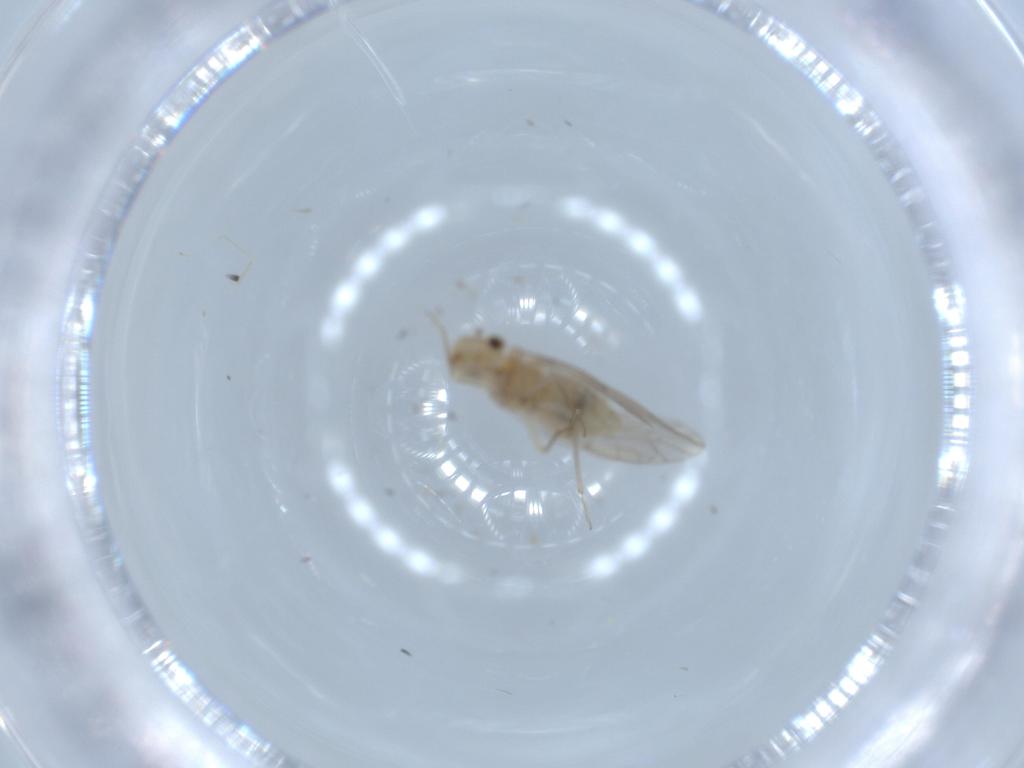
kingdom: Animalia
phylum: Arthropoda
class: Insecta
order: Psocodea
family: Lachesillidae
